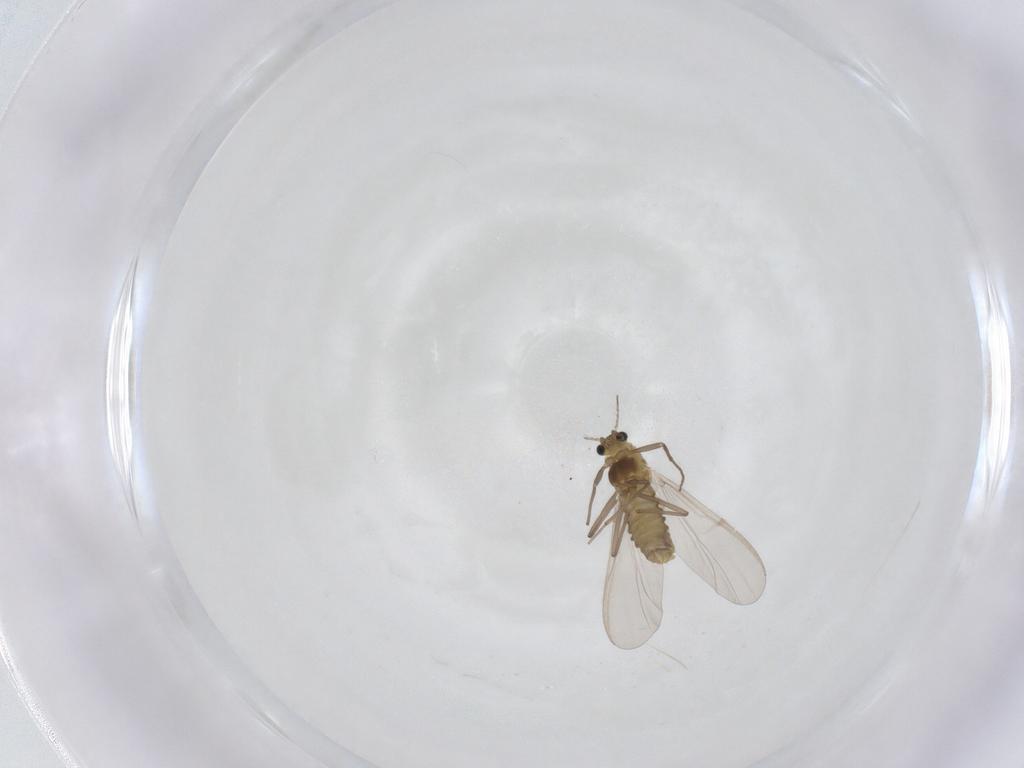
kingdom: Animalia
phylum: Arthropoda
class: Insecta
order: Diptera
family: Chironomidae
